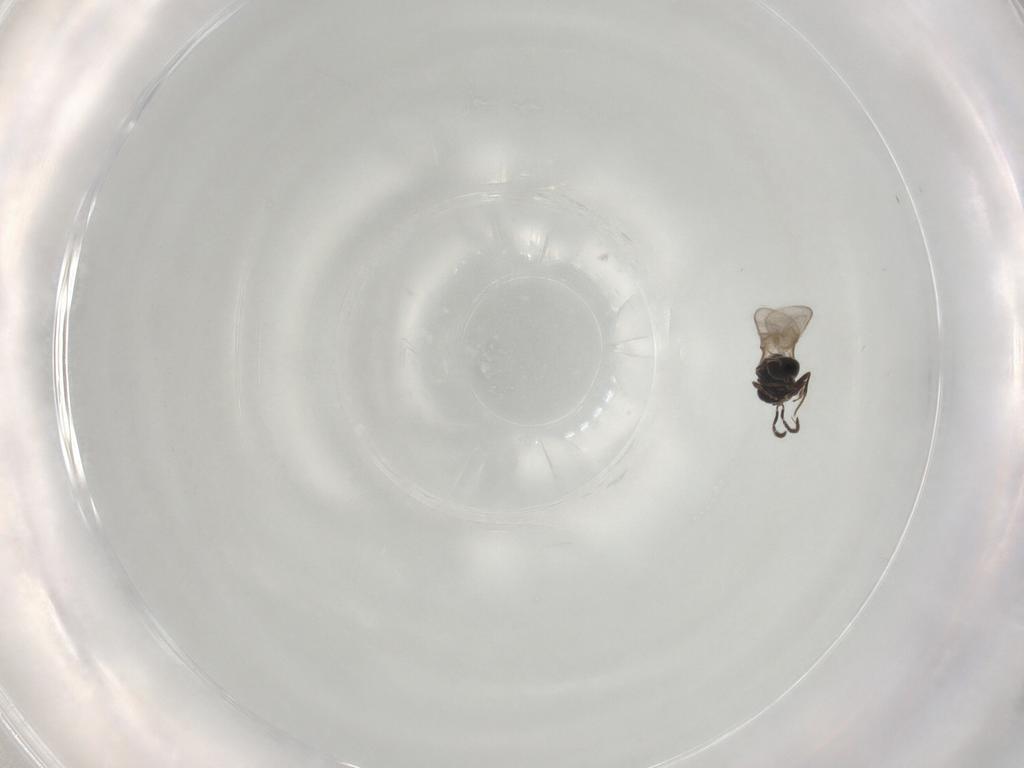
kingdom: Animalia
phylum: Arthropoda
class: Insecta
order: Hymenoptera
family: Scelionidae
